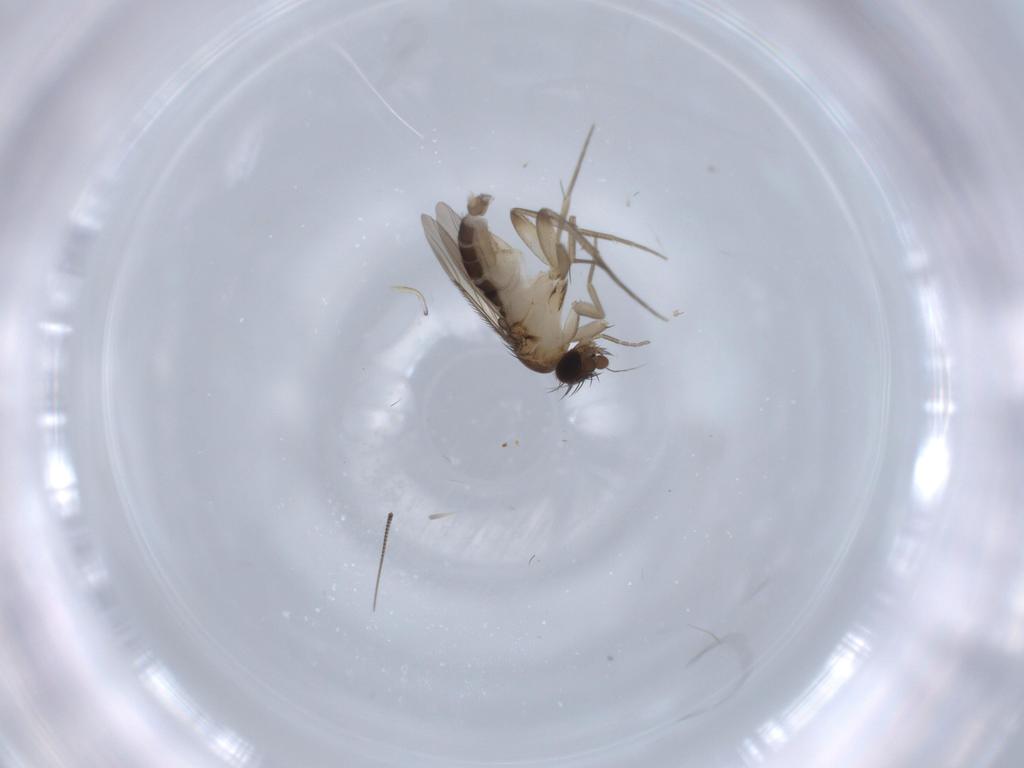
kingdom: Animalia
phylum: Arthropoda
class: Insecta
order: Diptera
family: Phoridae
